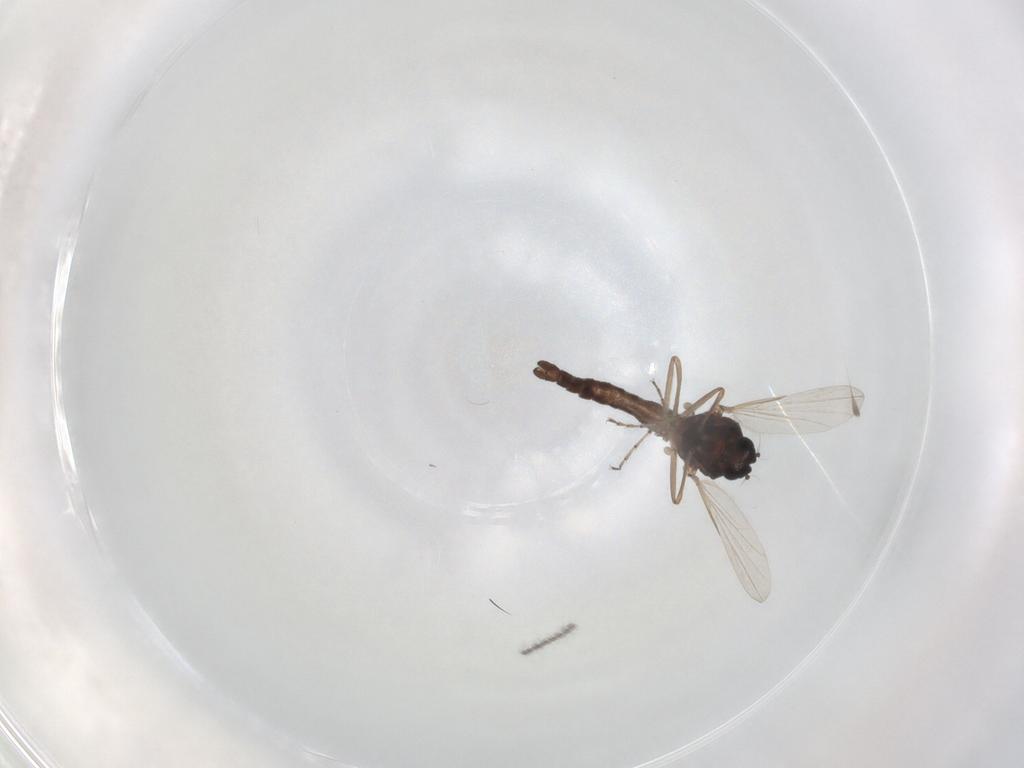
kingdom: Animalia
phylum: Arthropoda
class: Insecta
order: Diptera
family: Ceratopogonidae
